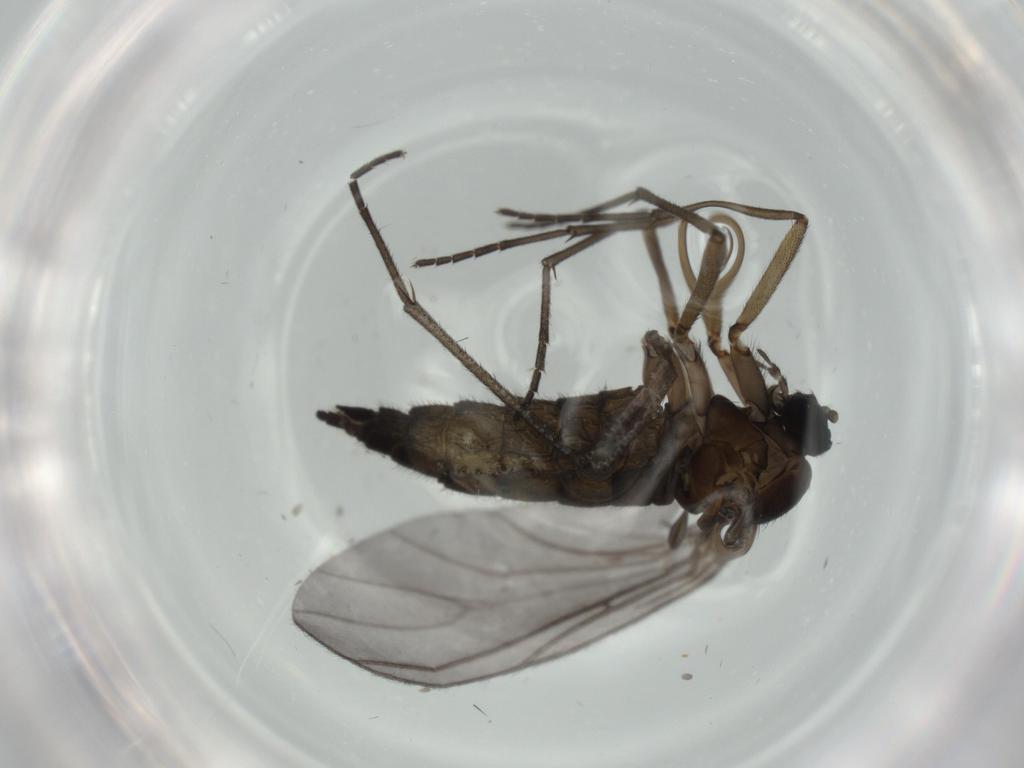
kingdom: Animalia
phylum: Arthropoda
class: Insecta
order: Diptera
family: Sciaridae
